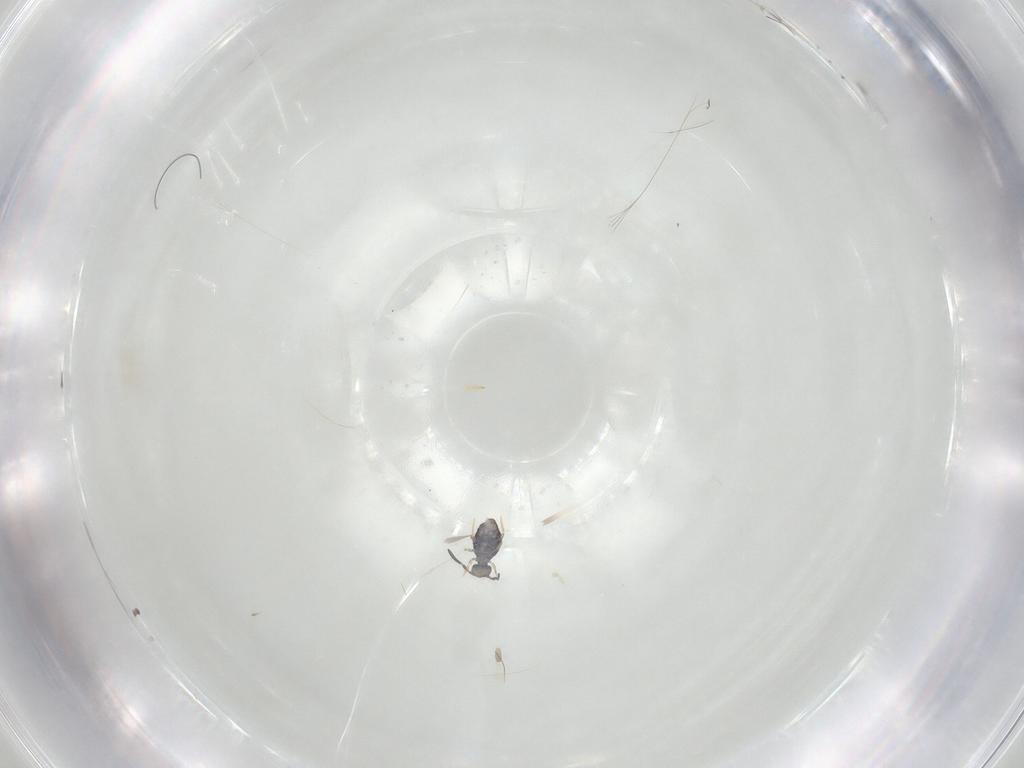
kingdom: Animalia
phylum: Arthropoda
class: Collembola
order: Symphypleona
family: Katiannidae
